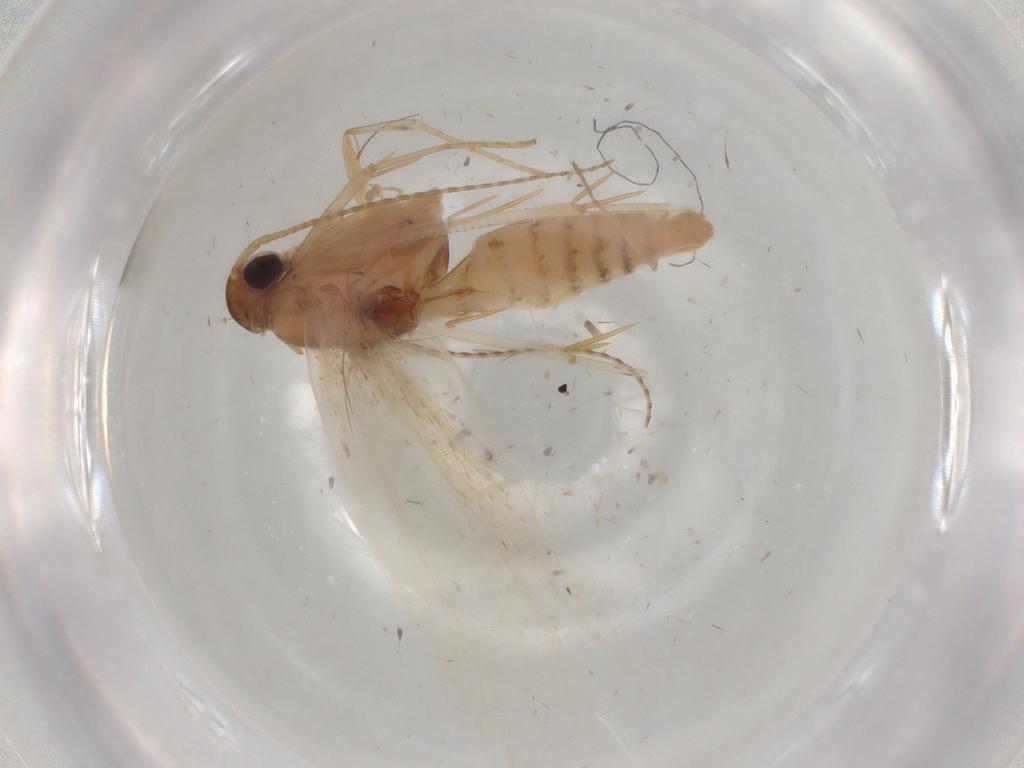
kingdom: Animalia
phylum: Arthropoda
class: Insecta
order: Lepidoptera
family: Gelechiidae
